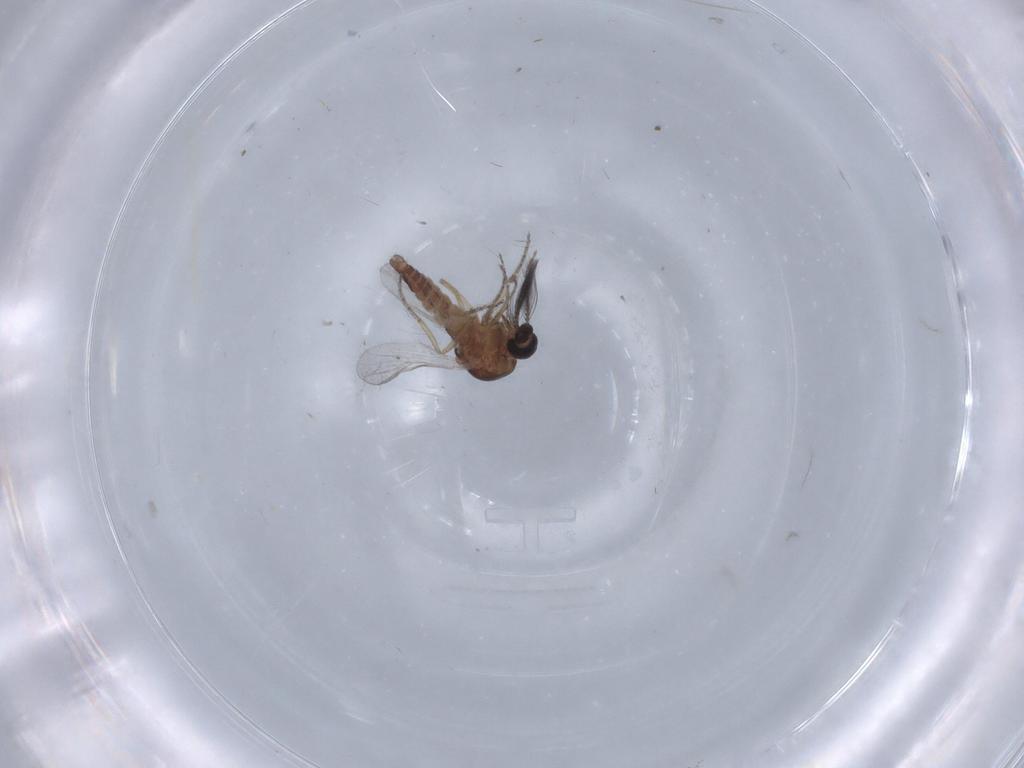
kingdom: Animalia
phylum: Arthropoda
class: Insecta
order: Diptera
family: Ceratopogonidae
